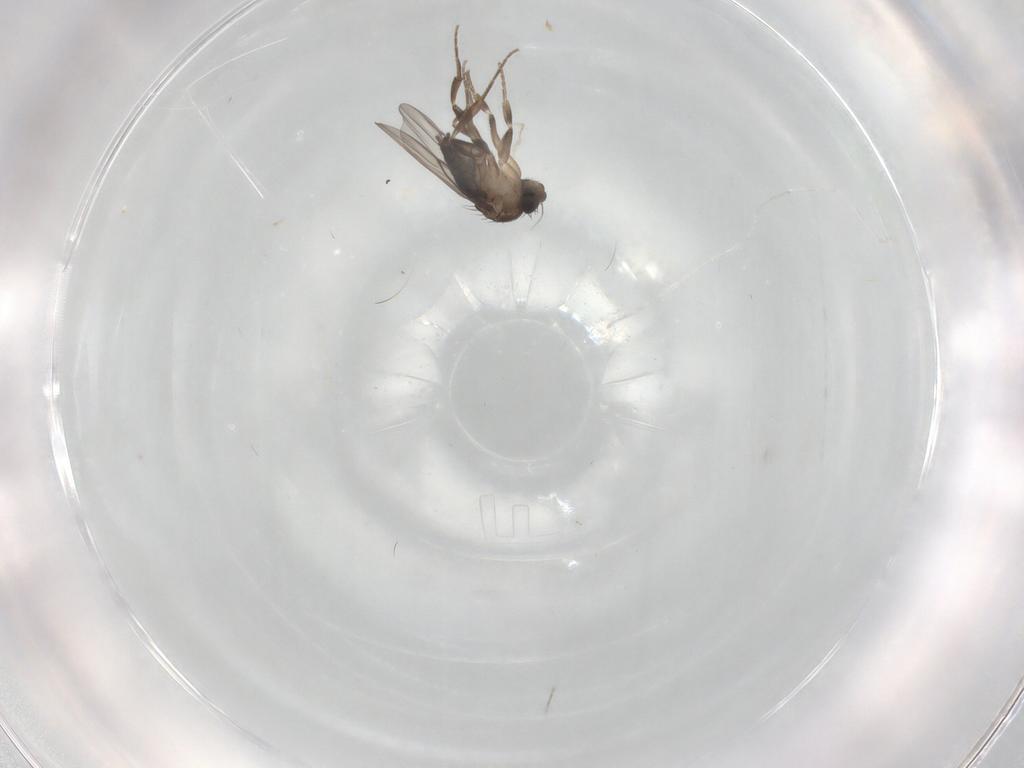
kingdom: Animalia
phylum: Arthropoda
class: Insecta
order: Diptera
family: Phoridae
